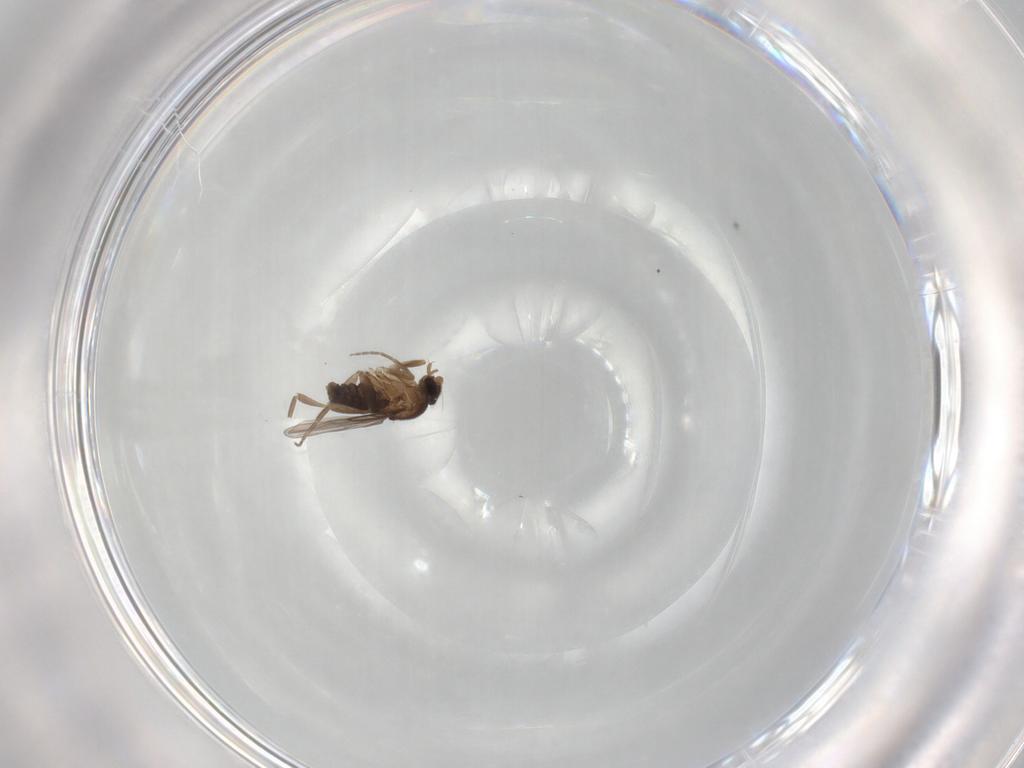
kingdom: Animalia
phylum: Arthropoda
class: Insecta
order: Diptera
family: Phoridae
